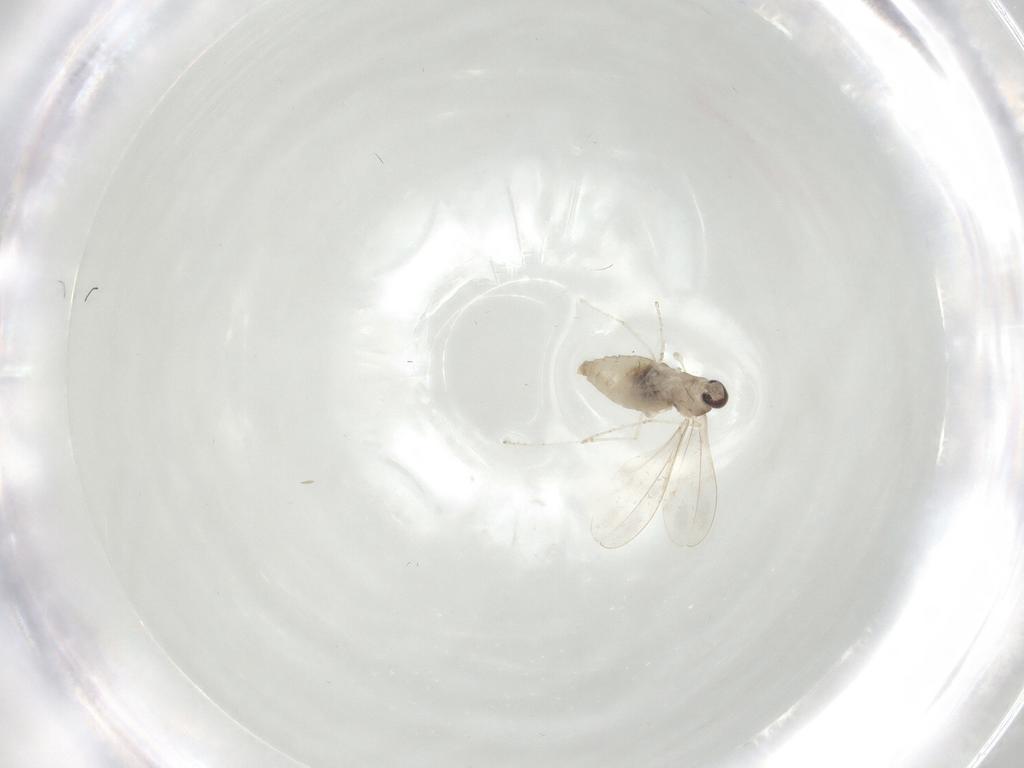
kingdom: Animalia
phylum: Arthropoda
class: Insecta
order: Diptera
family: Cecidomyiidae
